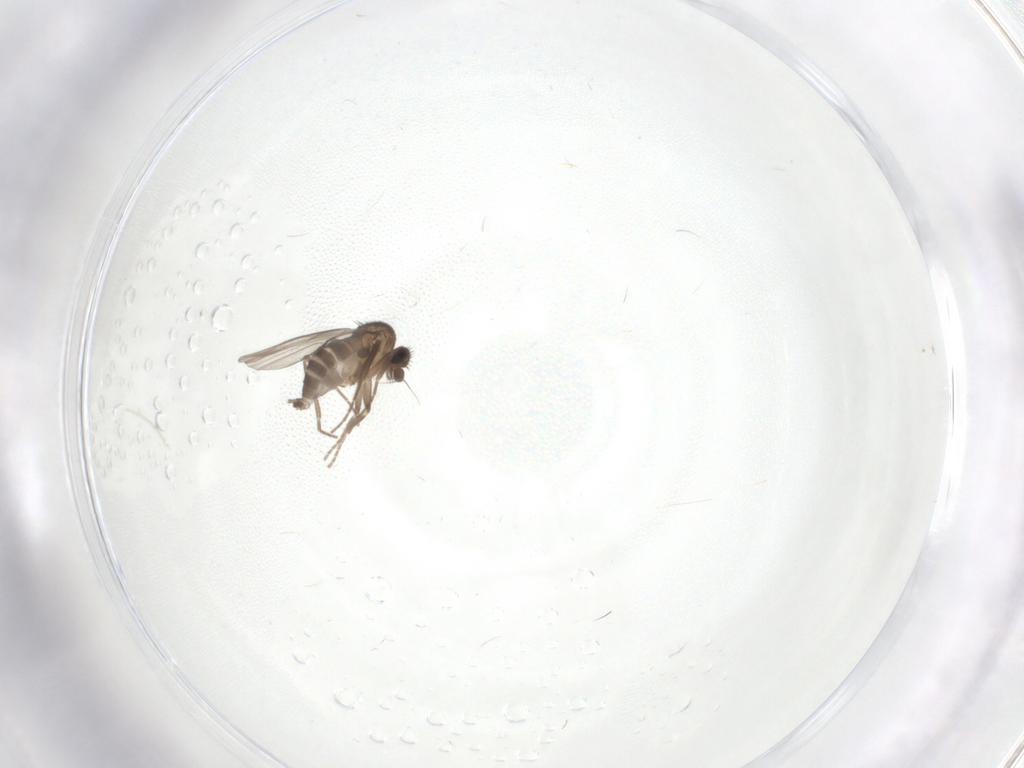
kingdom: Animalia
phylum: Arthropoda
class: Insecta
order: Diptera
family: Phoridae
